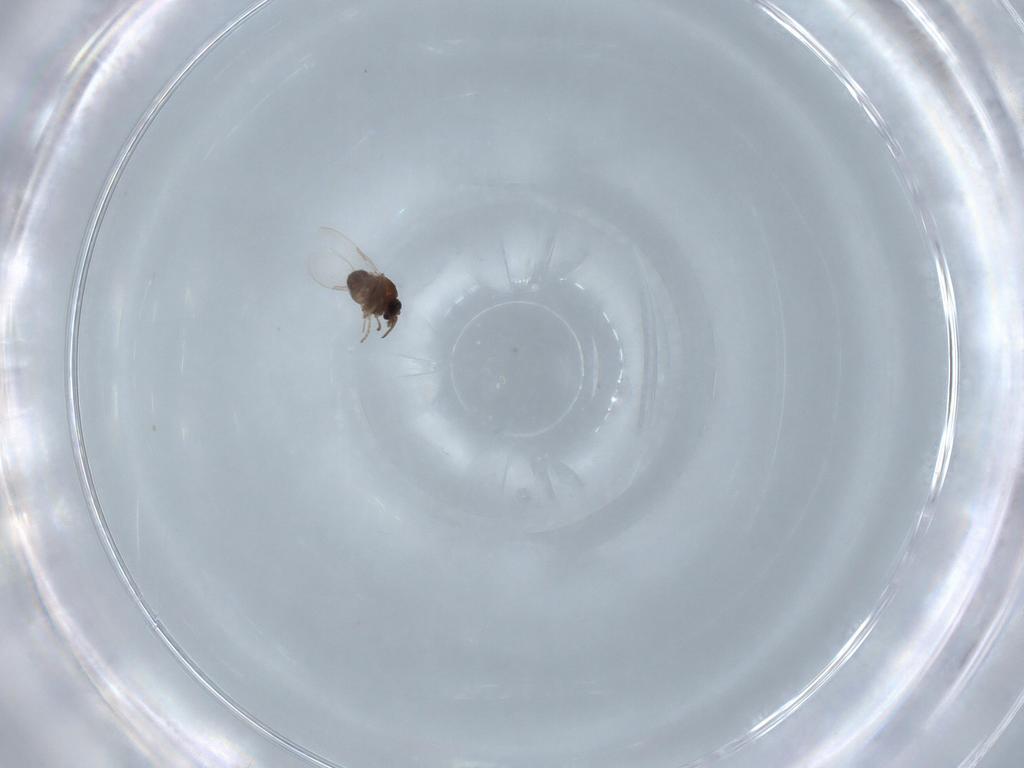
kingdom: Animalia
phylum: Arthropoda
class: Insecta
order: Diptera
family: Ceratopogonidae
